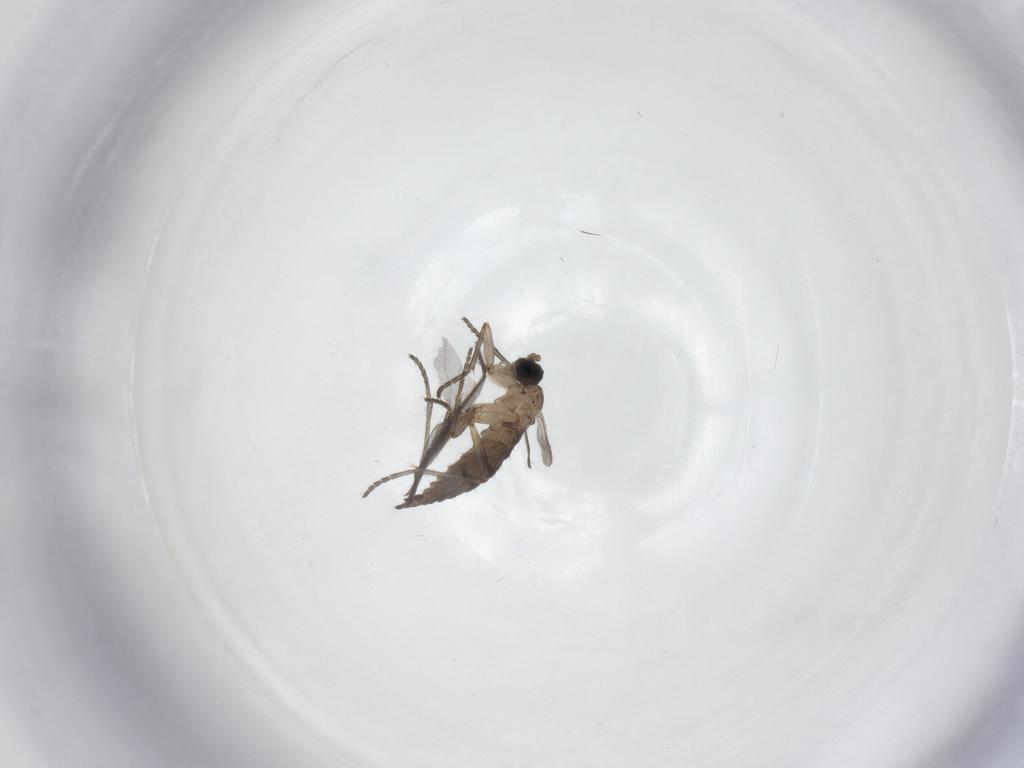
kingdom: Animalia
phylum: Arthropoda
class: Insecta
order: Diptera
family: Sciaridae
